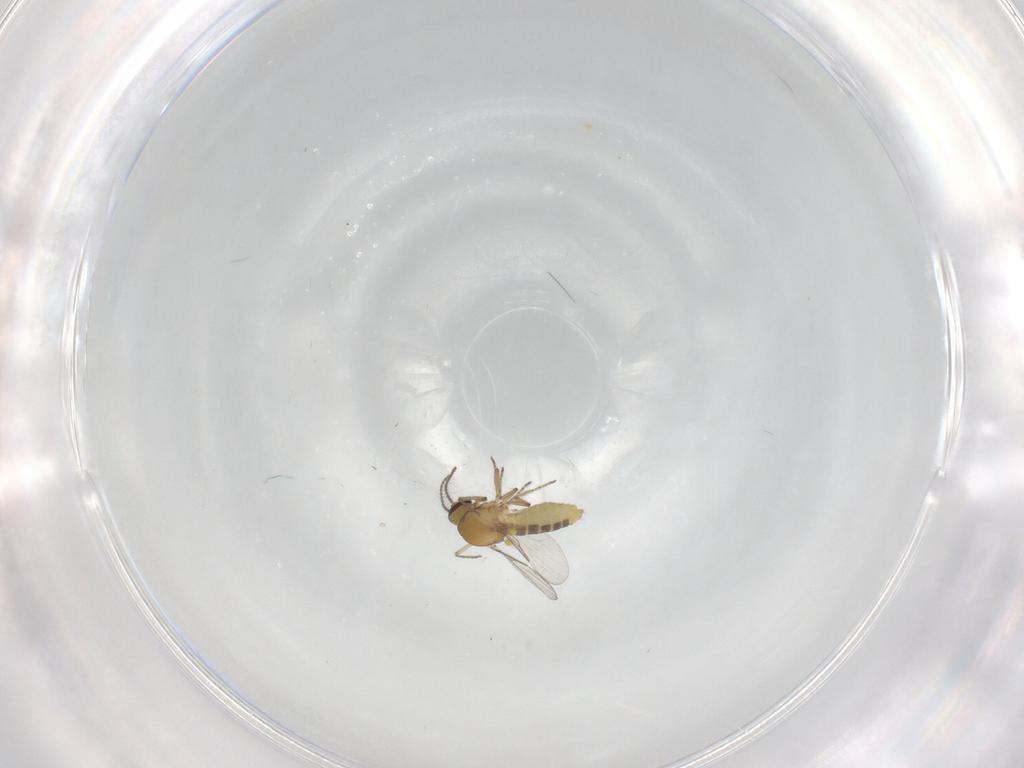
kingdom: Animalia
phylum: Arthropoda
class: Insecta
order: Diptera
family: Ceratopogonidae
